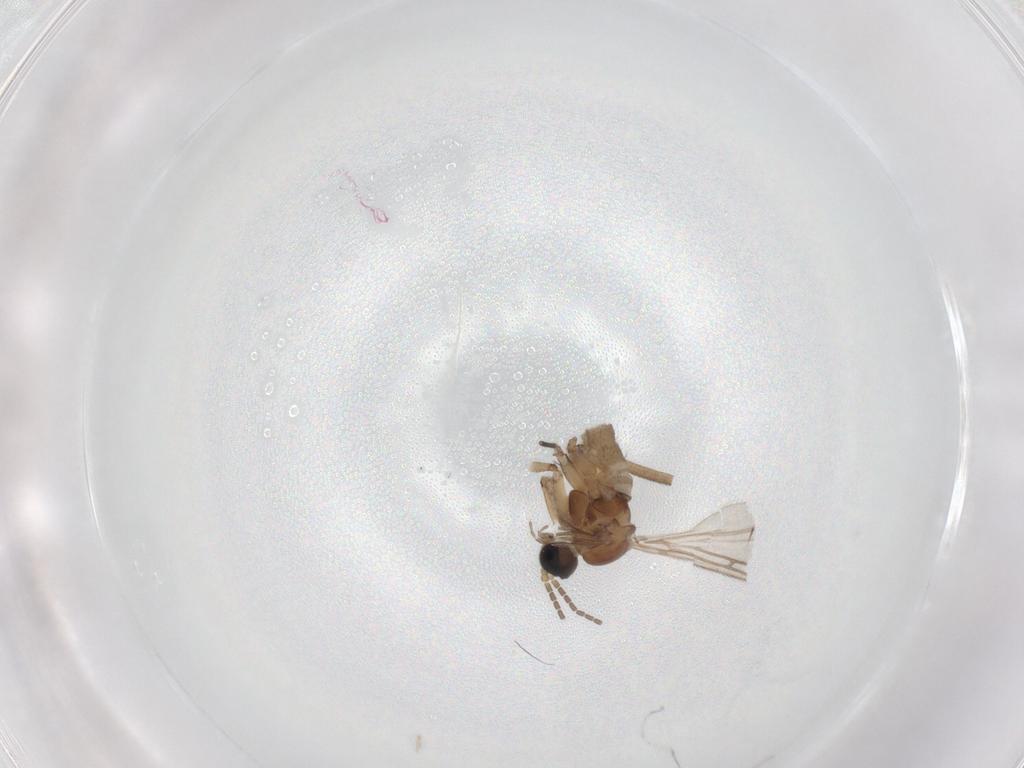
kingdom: Animalia
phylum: Arthropoda
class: Insecta
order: Diptera
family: Sciaridae
